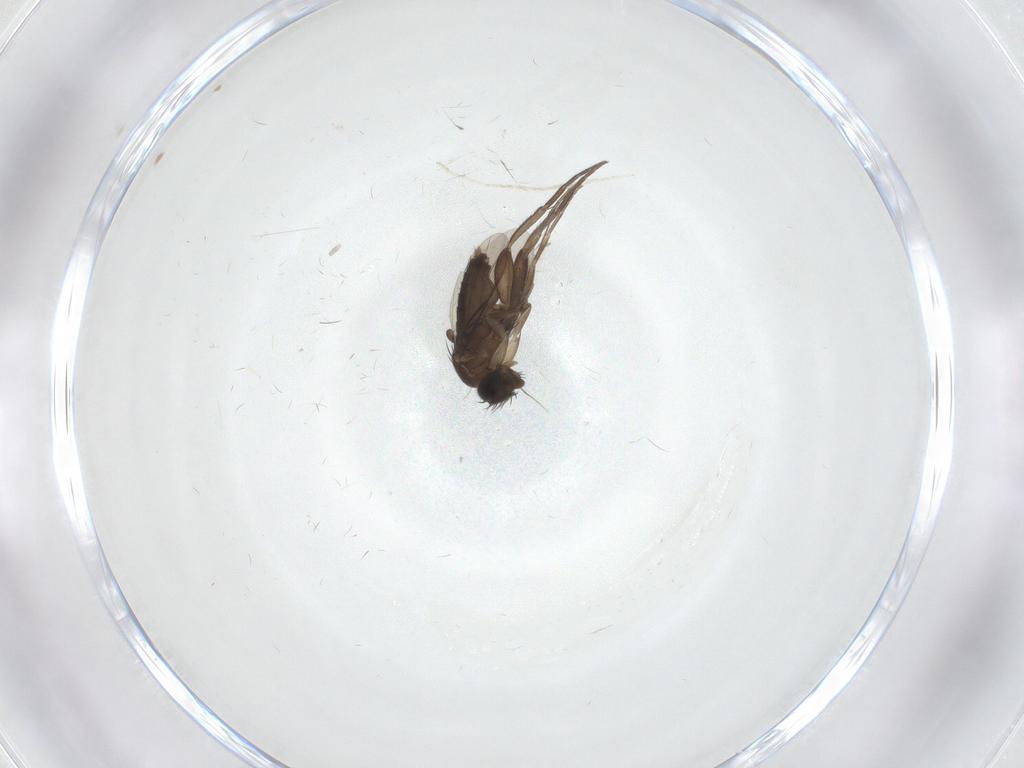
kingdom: Animalia
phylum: Arthropoda
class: Insecta
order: Diptera
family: Phoridae
